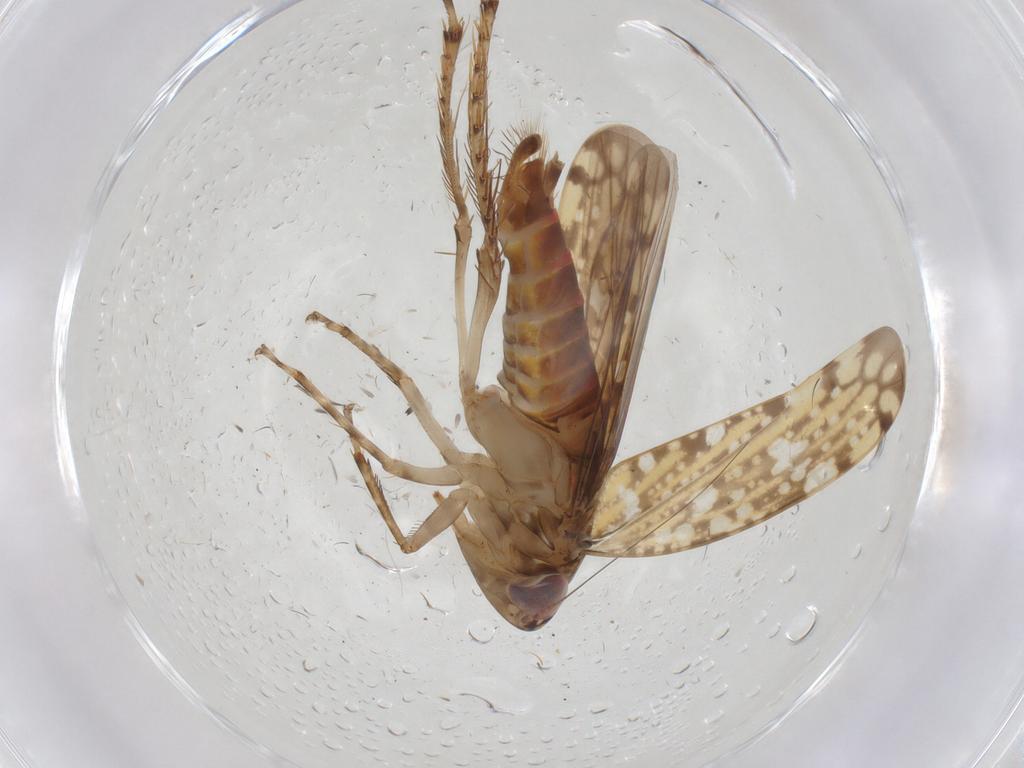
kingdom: Animalia
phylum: Arthropoda
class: Insecta
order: Hemiptera
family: Cicadellidae
